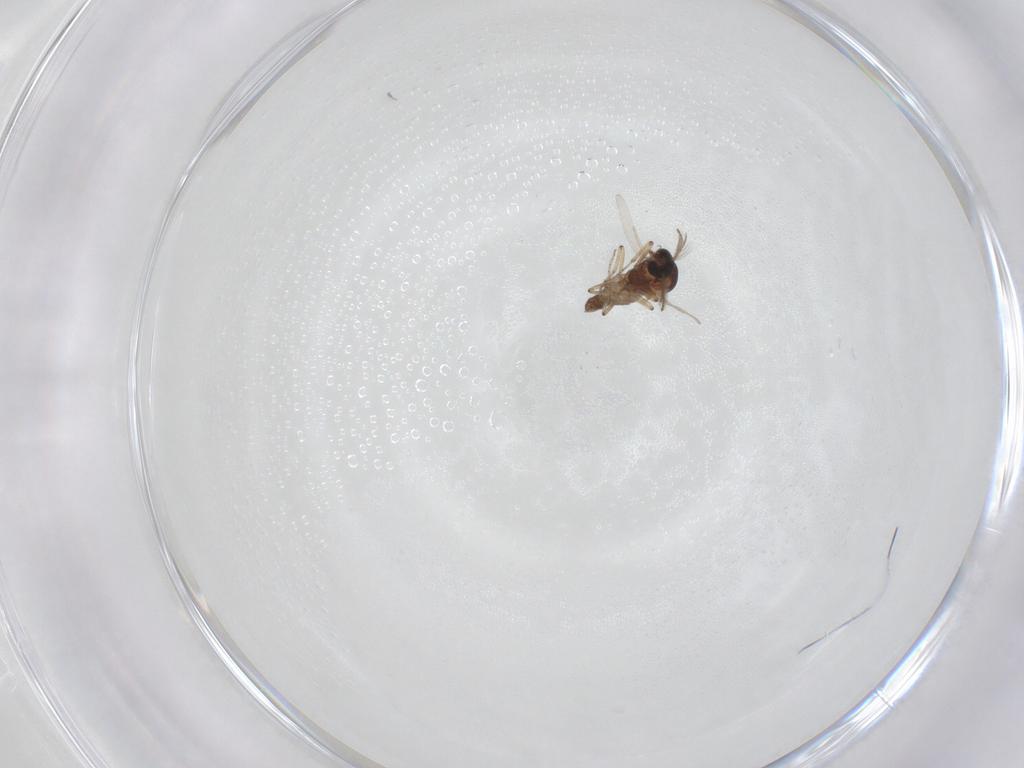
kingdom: Animalia
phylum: Arthropoda
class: Insecta
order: Diptera
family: Ceratopogonidae
